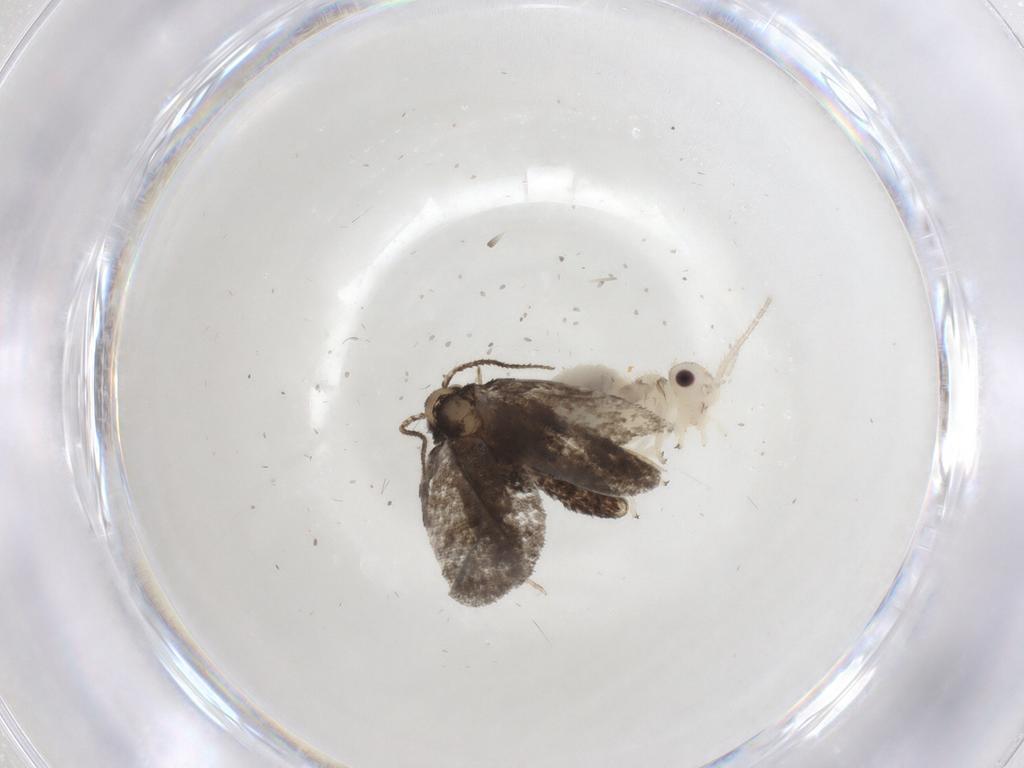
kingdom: Animalia
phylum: Arthropoda
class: Insecta
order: Lepidoptera
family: Psychidae
